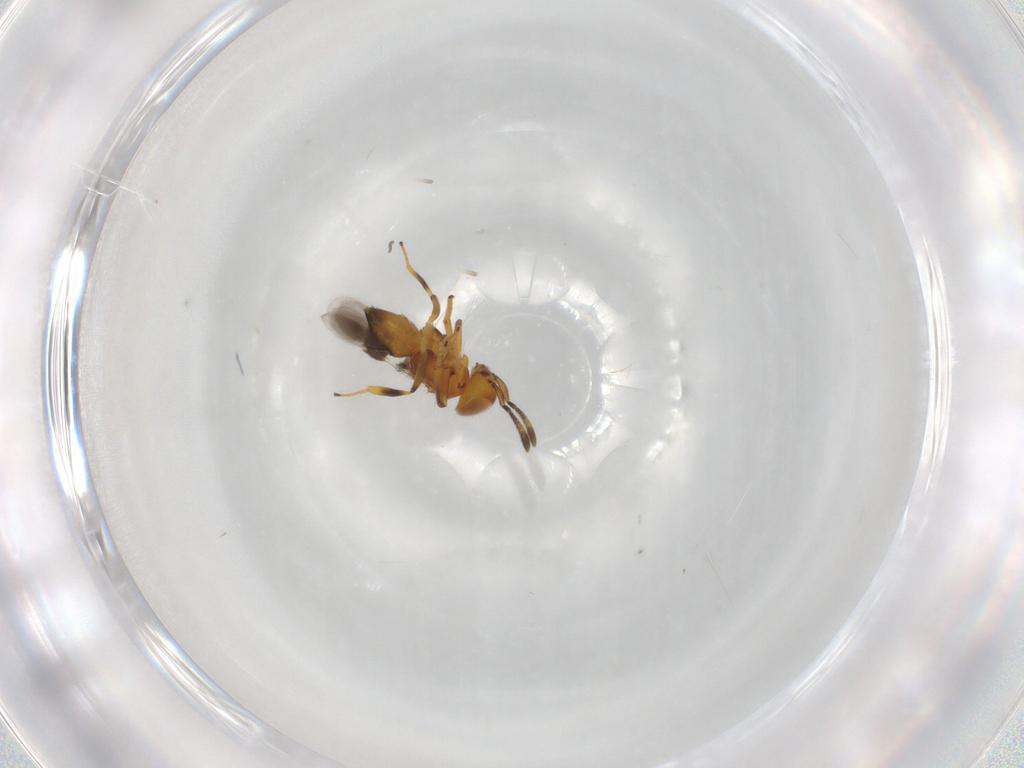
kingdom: Animalia
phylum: Arthropoda
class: Insecta
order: Hymenoptera
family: Encyrtidae
